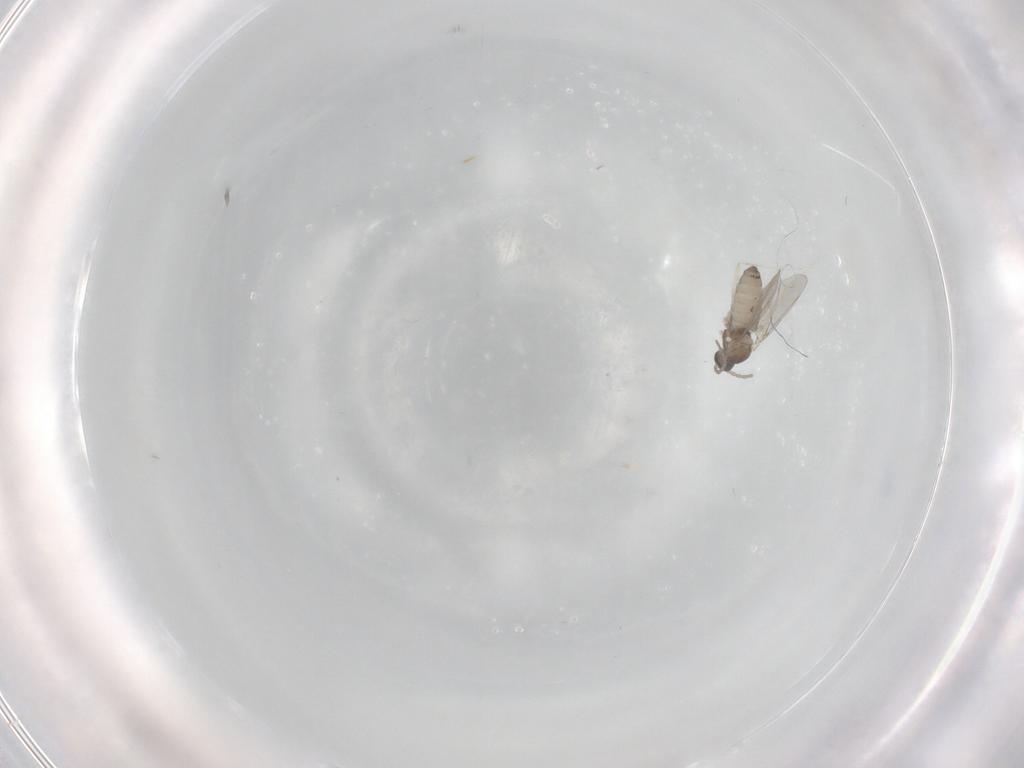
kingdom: Animalia
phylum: Arthropoda
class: Insecta
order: Diptera
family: Cecidomyiidae
